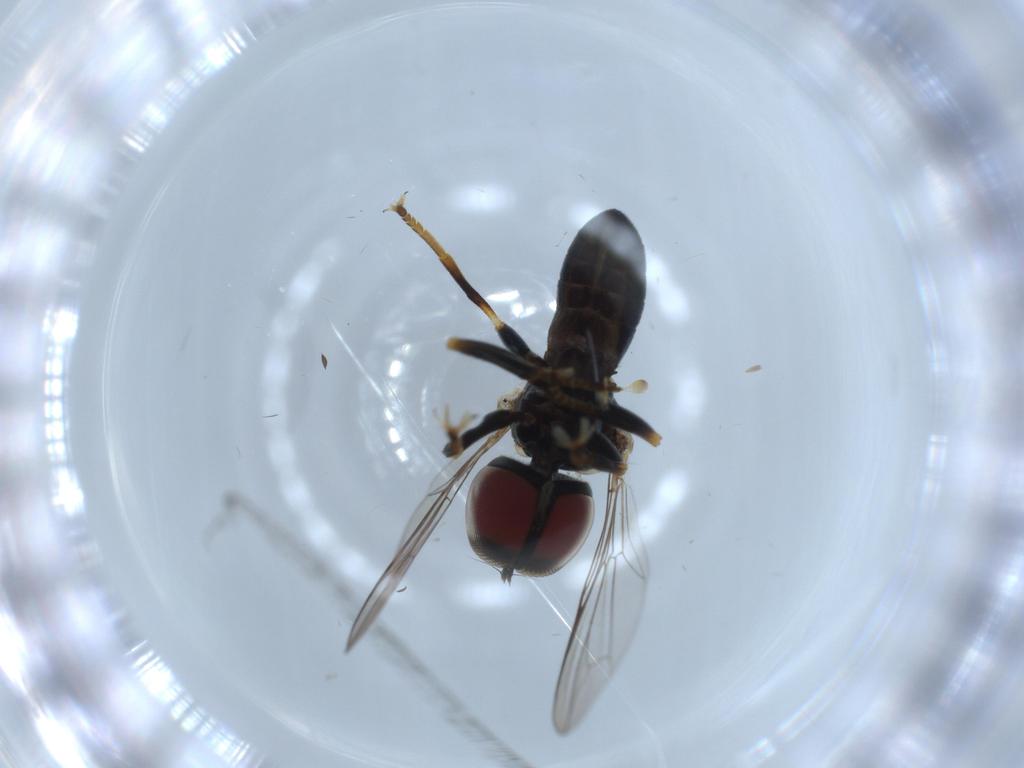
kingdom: Animalia
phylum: Arthropoda
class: Insecta
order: Diptera
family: Pipunculidae
